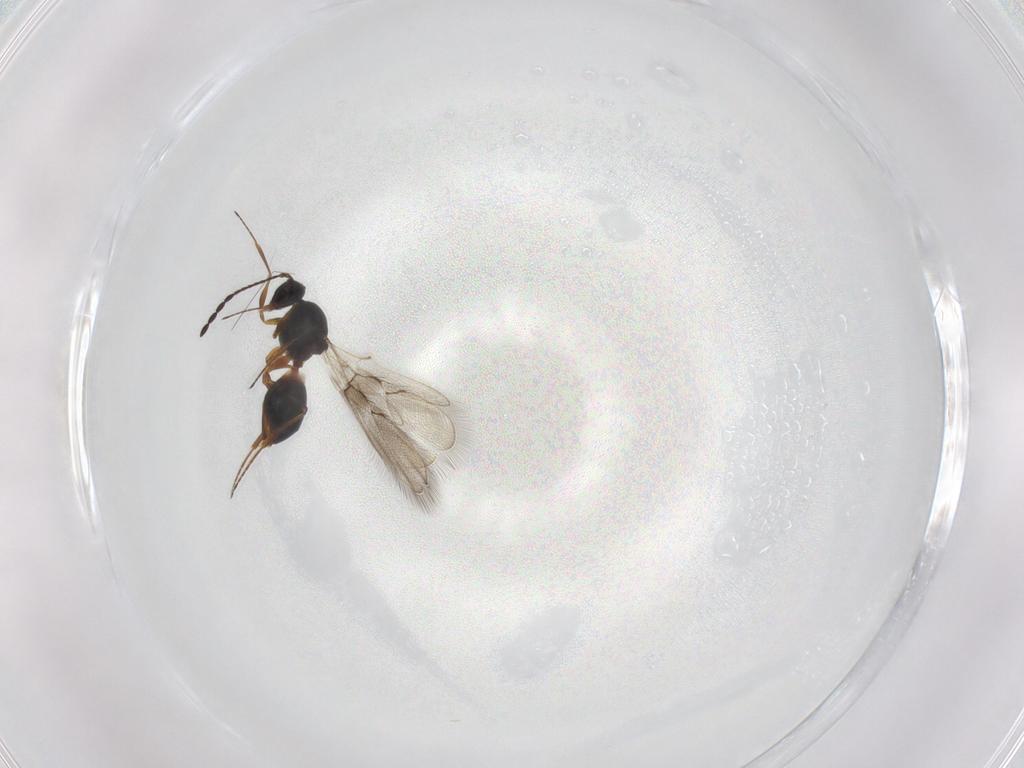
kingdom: Animalia
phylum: Arthropoda
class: Insecta
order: Hymenoptera
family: Figitidae
